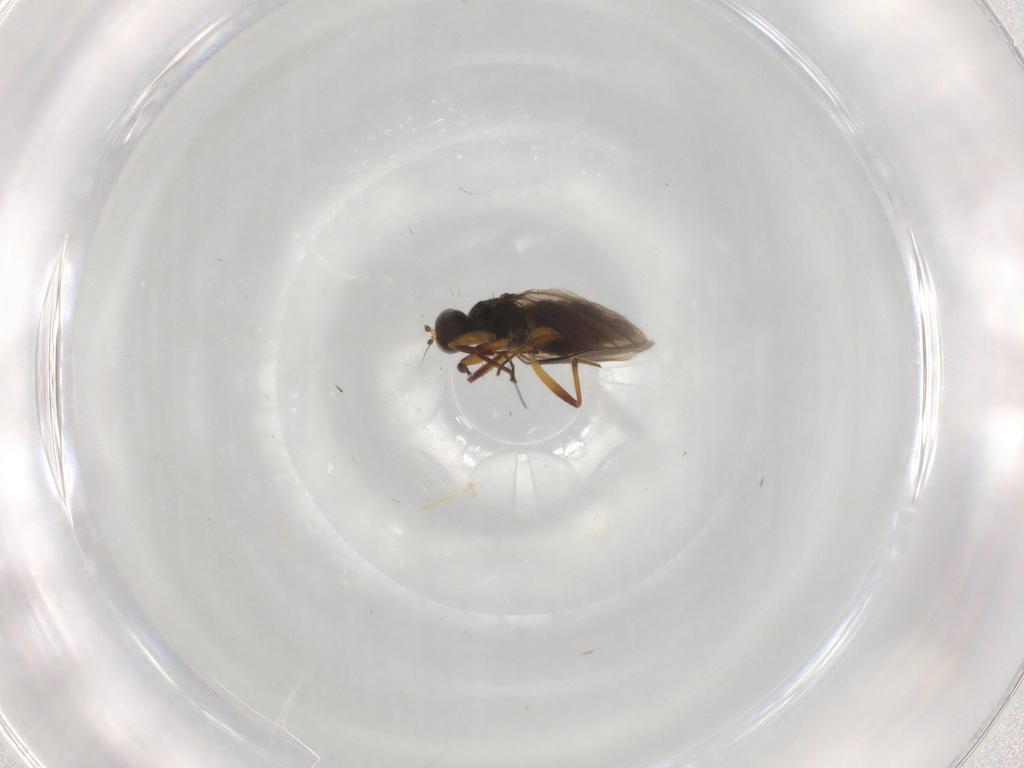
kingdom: Animalia
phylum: Arthropoda
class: Insecta
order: Diptera
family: Hybotidae
